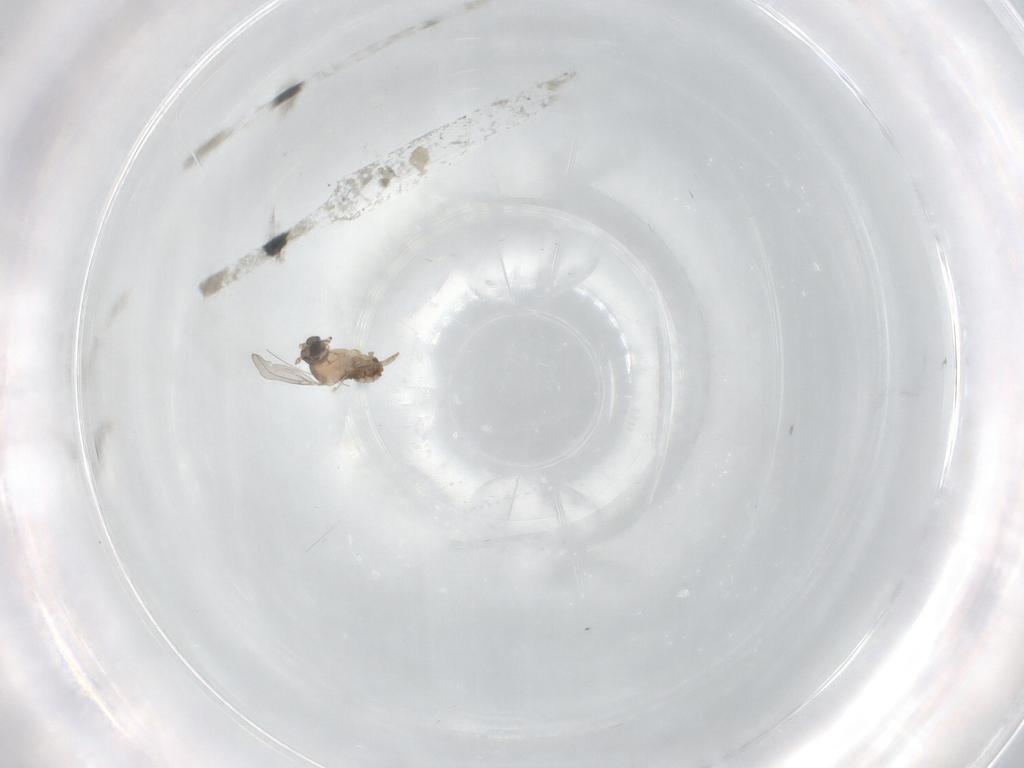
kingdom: Animalia
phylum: Arthropoda
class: Insecta
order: Diptera
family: Cecidomyiidae
